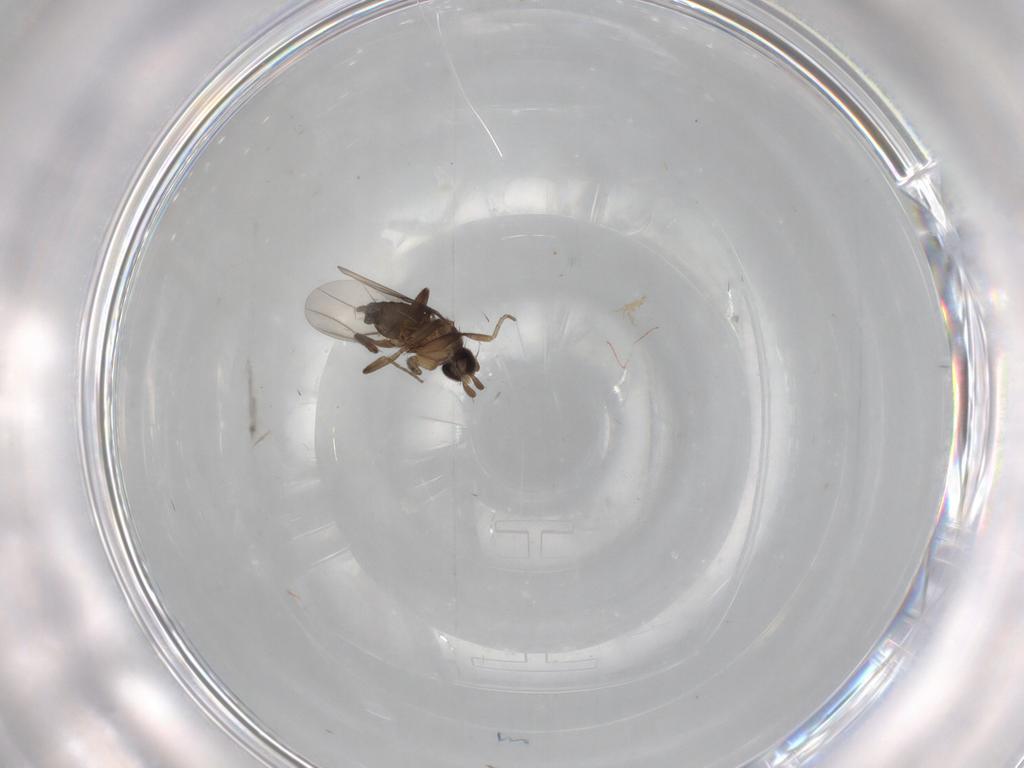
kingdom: Animalia
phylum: Arthropoda
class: Insecta
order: Diptera
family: Phoridae
